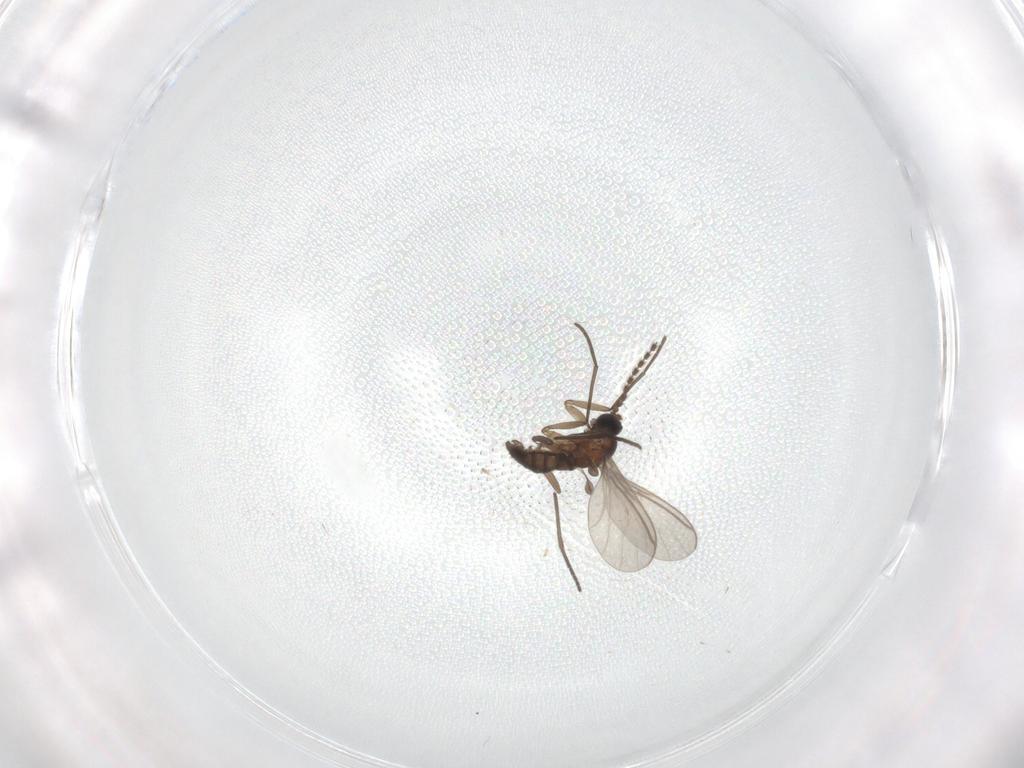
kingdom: Animalia
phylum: Arthropoda
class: Insecta
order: Diptera
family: Chironomidae
